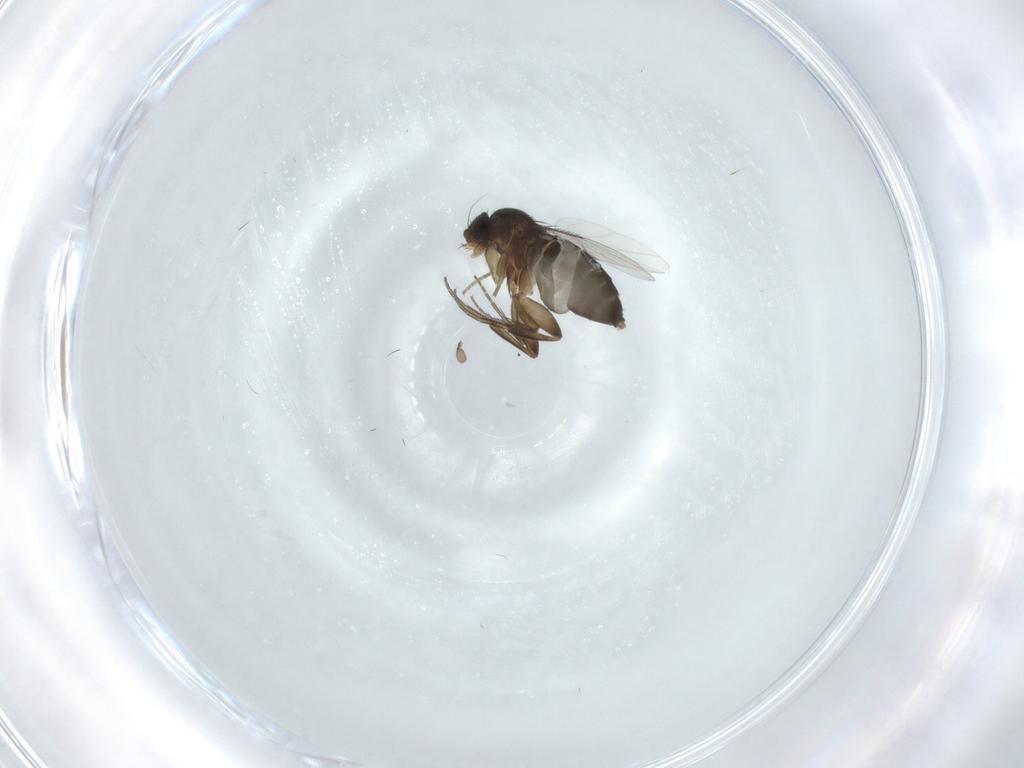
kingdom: Animalia
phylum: Arthropoda
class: Insecta
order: Diptera
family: Phoridae
